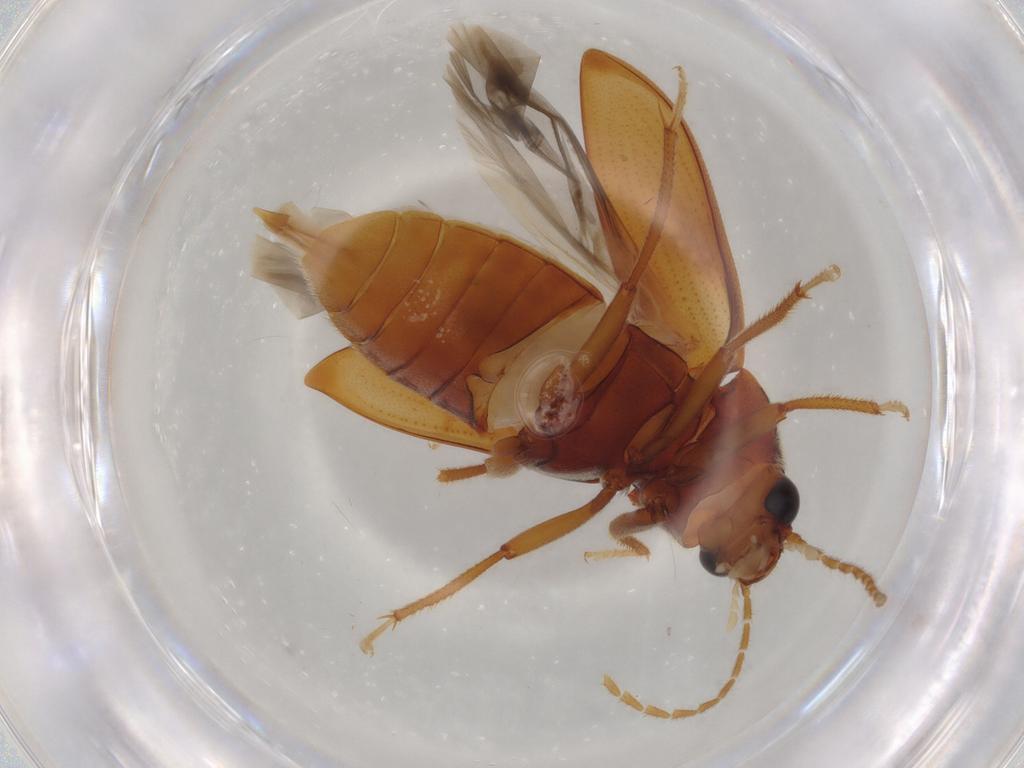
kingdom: Animalia
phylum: Arthropoda
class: Insecta
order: Coleoptera
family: Ptilodactylidae
